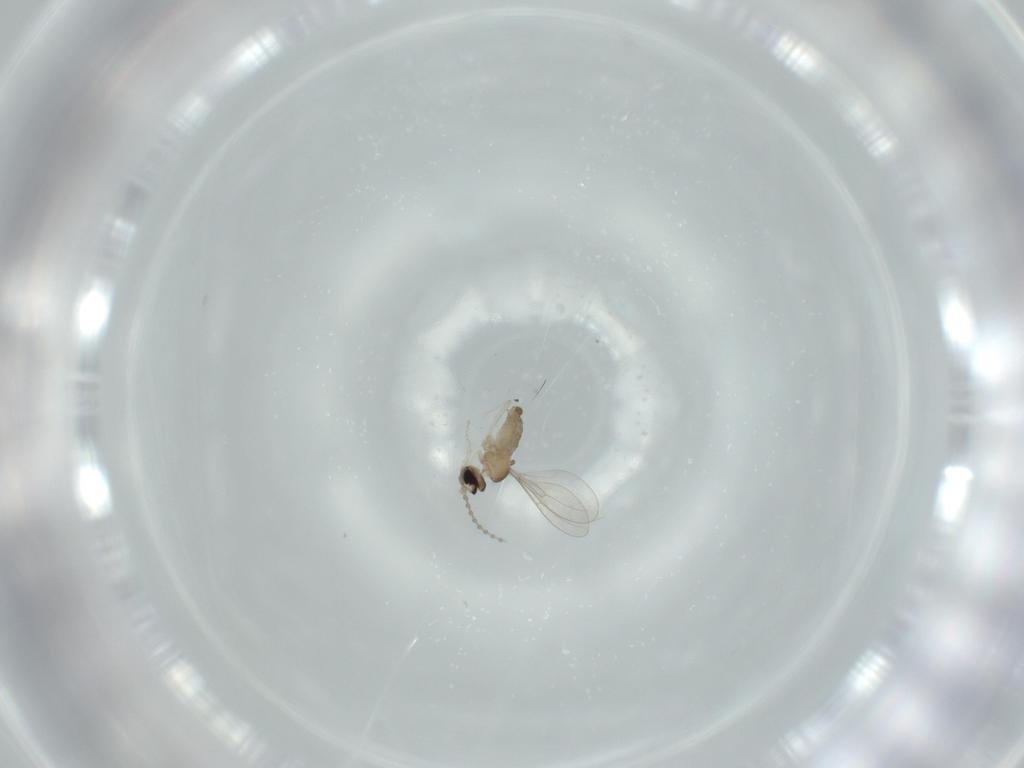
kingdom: Animalia
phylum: Arthropoda
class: Insecta
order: Diptera
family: Cecidomyiidae
